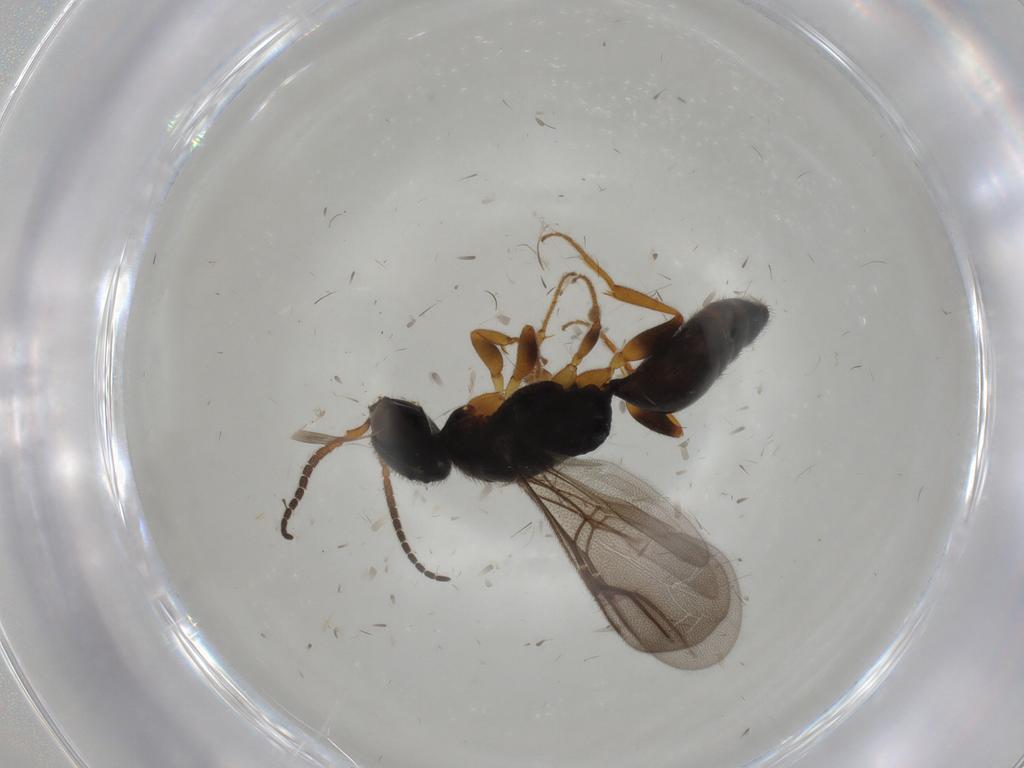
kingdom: Animalia
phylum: Arthropoda
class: Insecta
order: Hymenoptera
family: Bethylidae
